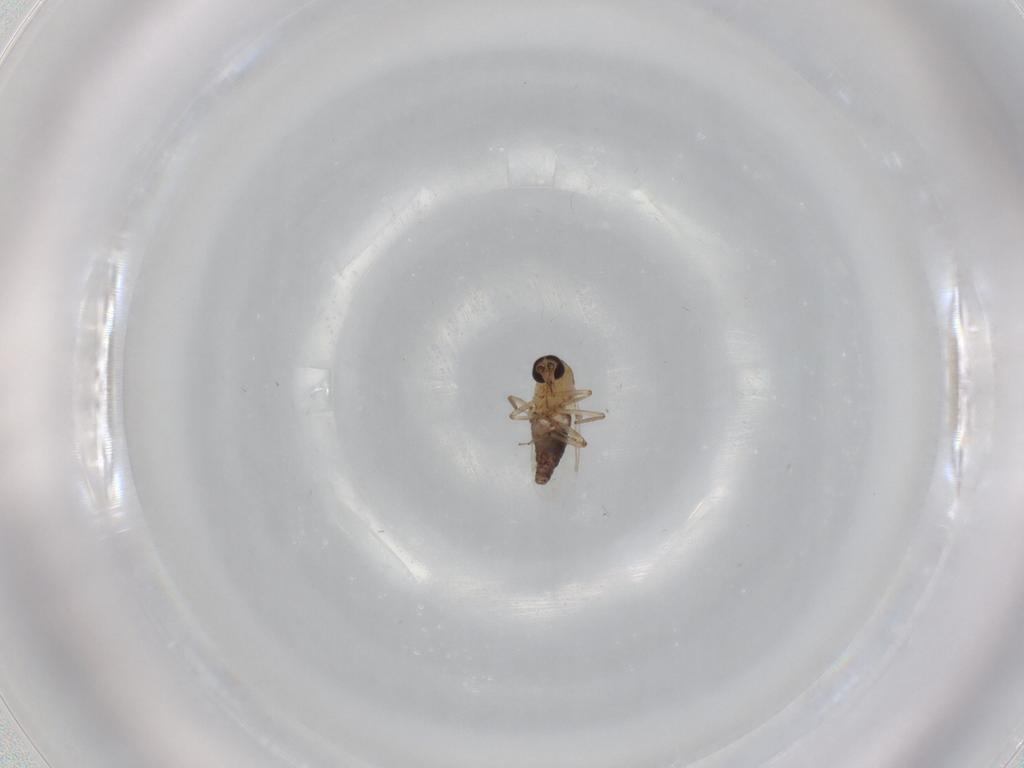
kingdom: Animalia
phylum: Arthropoda
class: Insecta
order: Diptera
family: Ceratopogonidae
